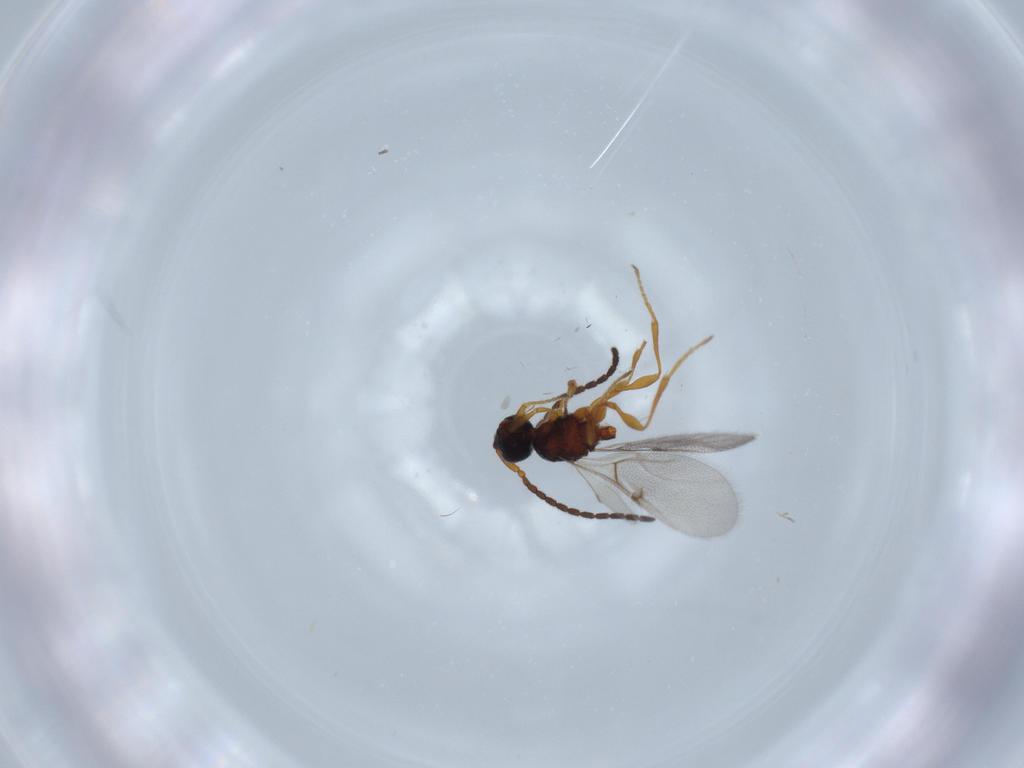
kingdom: Animalia
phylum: Arthropoda
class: Insecta
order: Hymenoptera
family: Diapriidae
